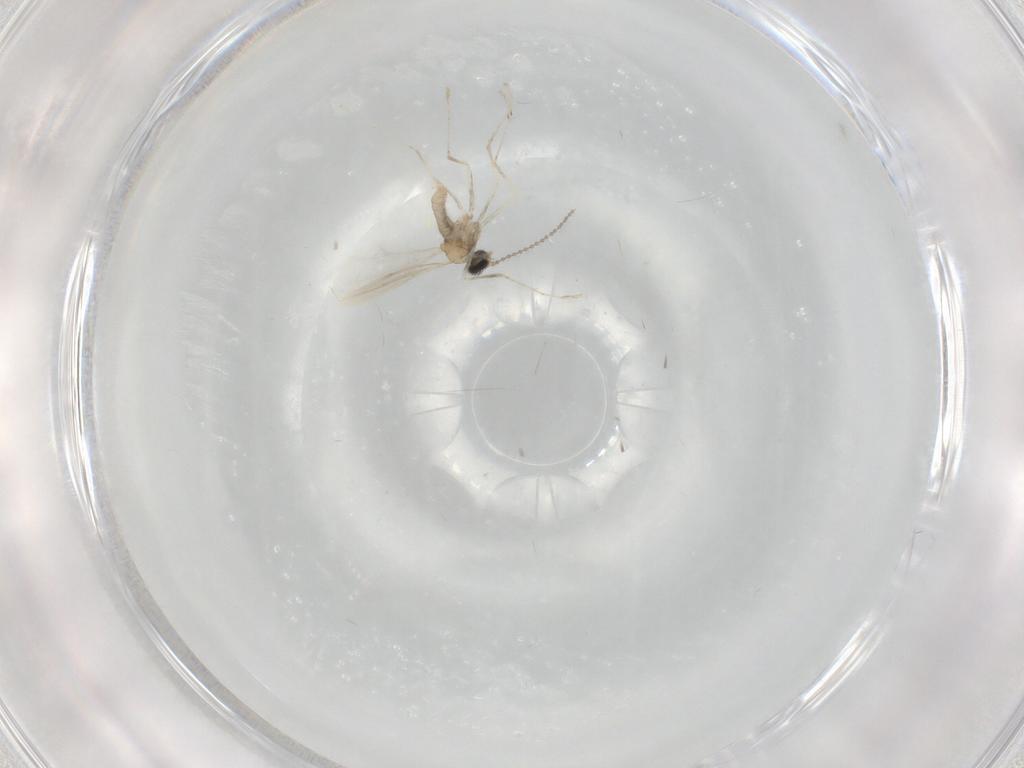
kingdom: Animalia
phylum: Arthropoda
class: Insecta
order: Diptera
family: Cecidomyiidae
